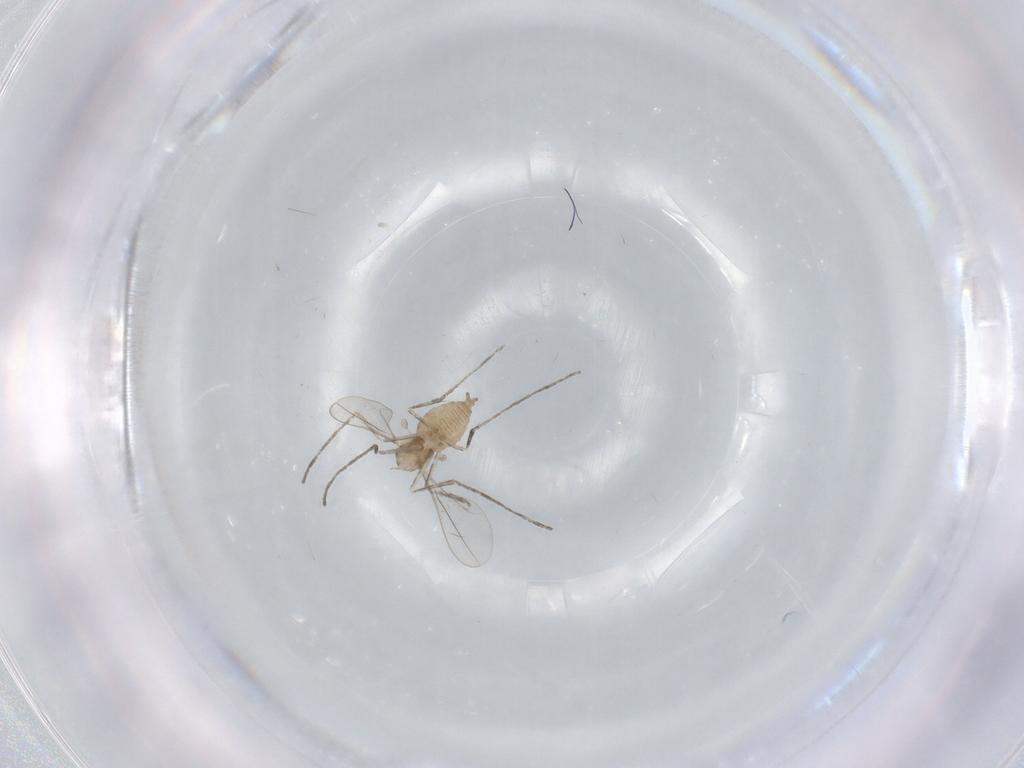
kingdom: Animalia
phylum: Arthropoda
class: Insecta
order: Diptera
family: Cecidomyiidae
